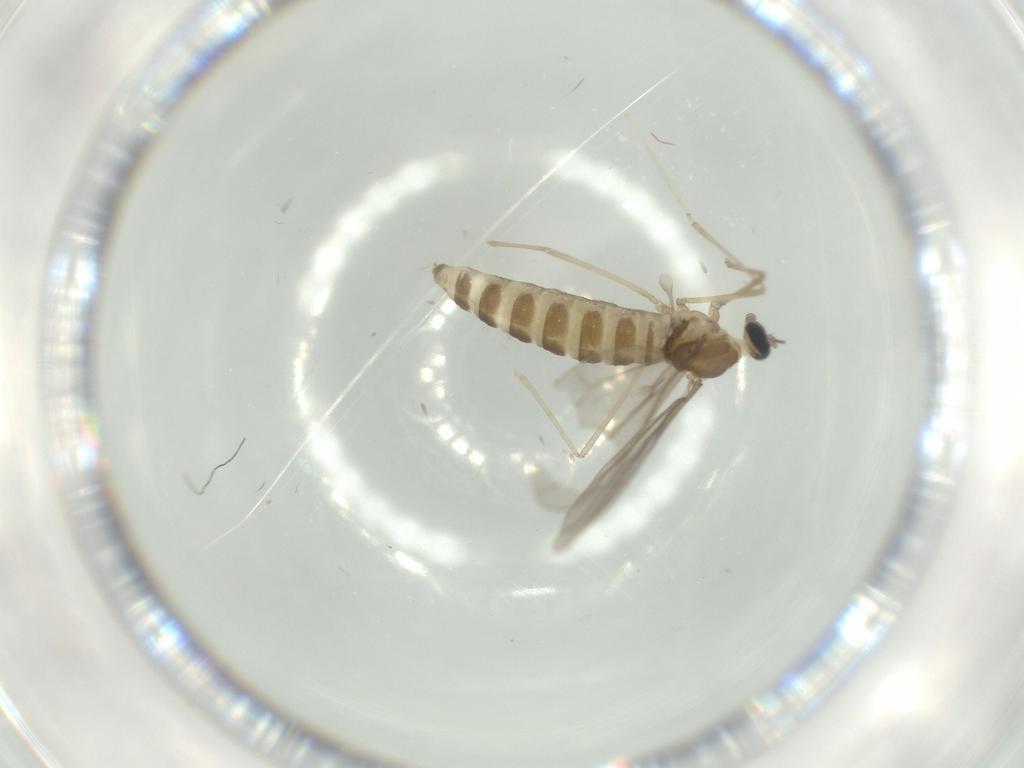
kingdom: Animalia
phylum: Arthropoda
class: Insecta
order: Diptera
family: Cecidomyiidae
